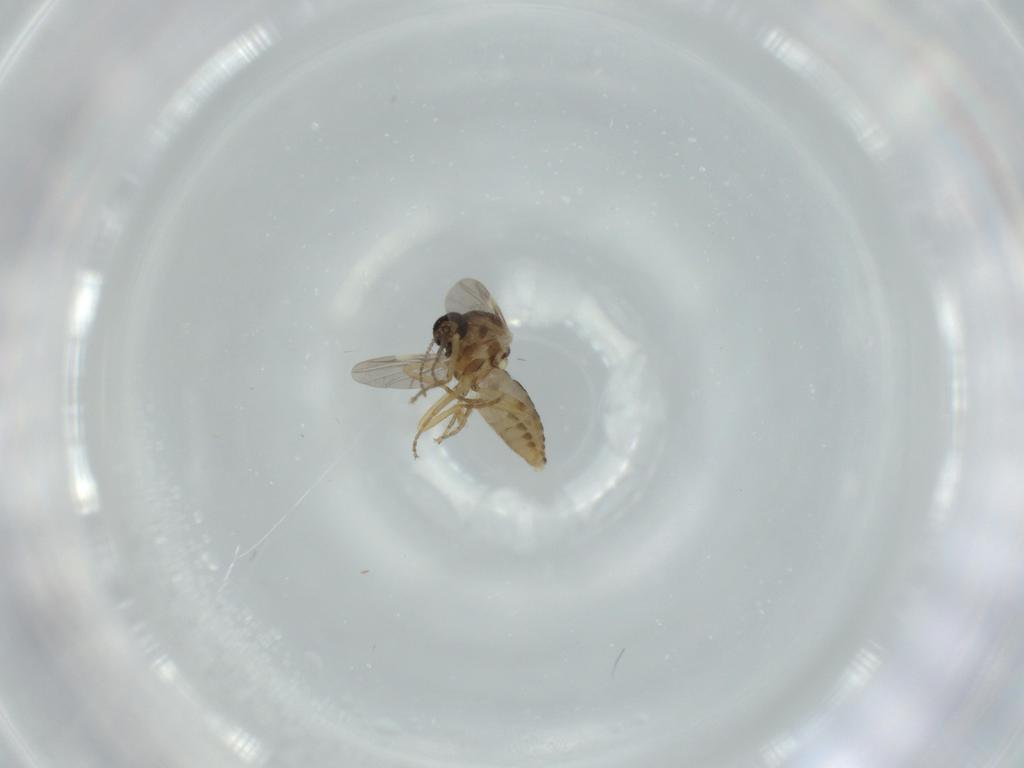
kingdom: Animalia
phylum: Arthropoda
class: Insecta
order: Diptera
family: Ceratopogonidae
